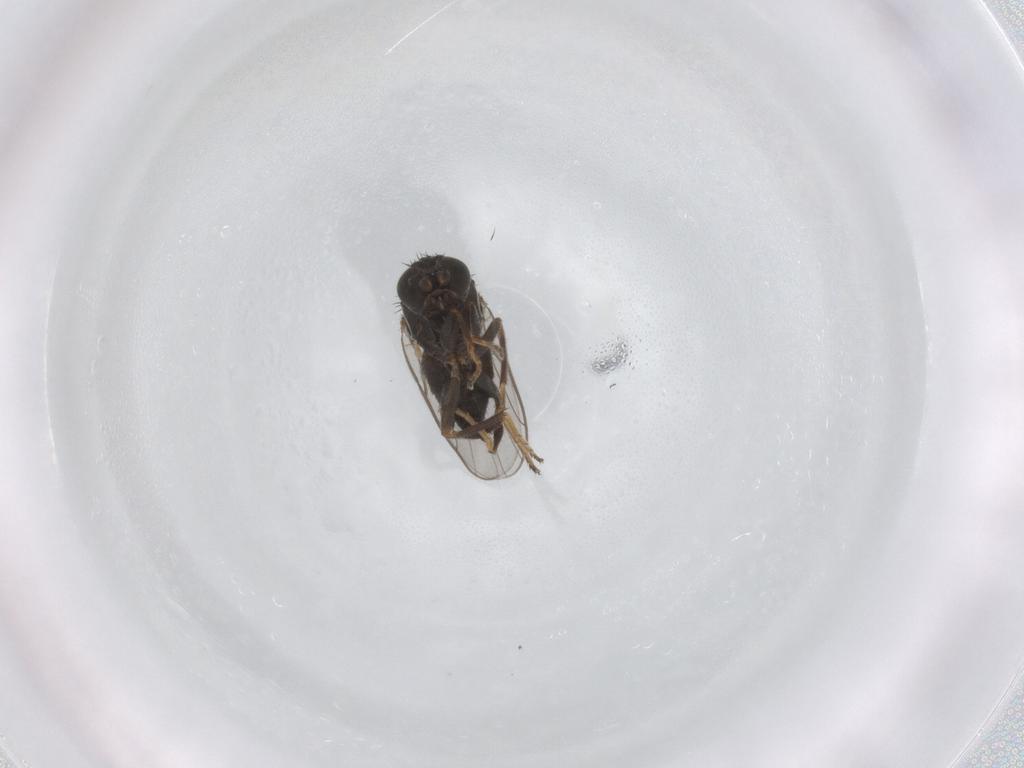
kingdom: Animalia
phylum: Arthropoda
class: Insecta
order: Diptera
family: Chloropidae
